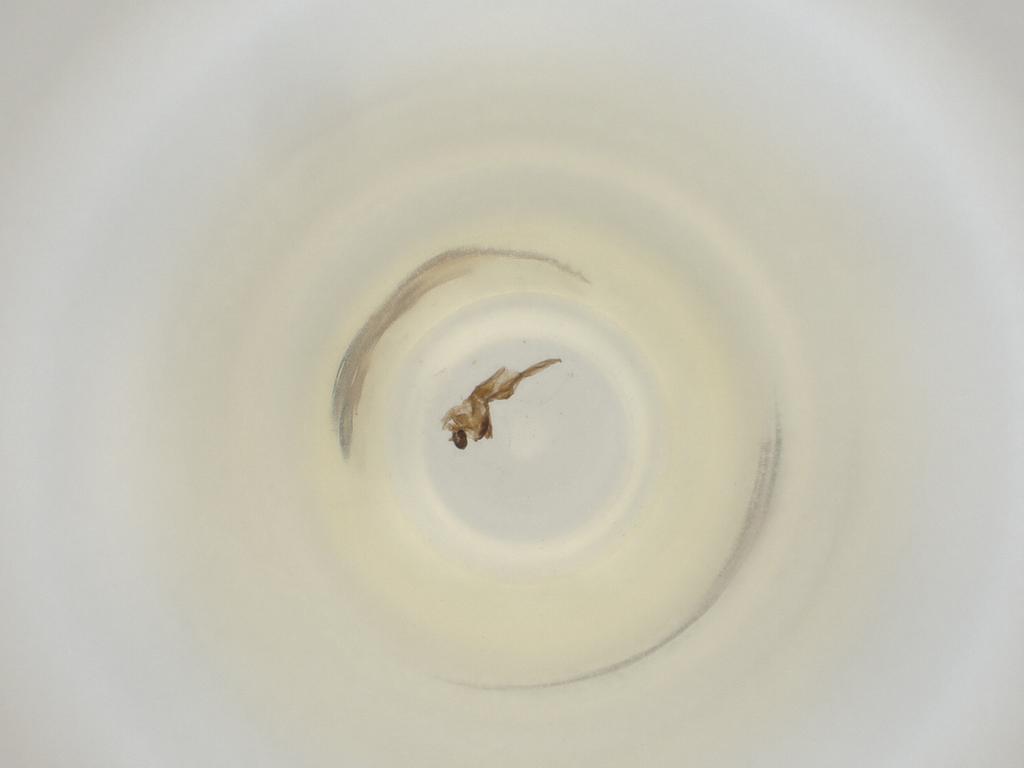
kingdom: Animalia
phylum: Arthropoda
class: Insecta
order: Diptera
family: Cecidomyiidae
